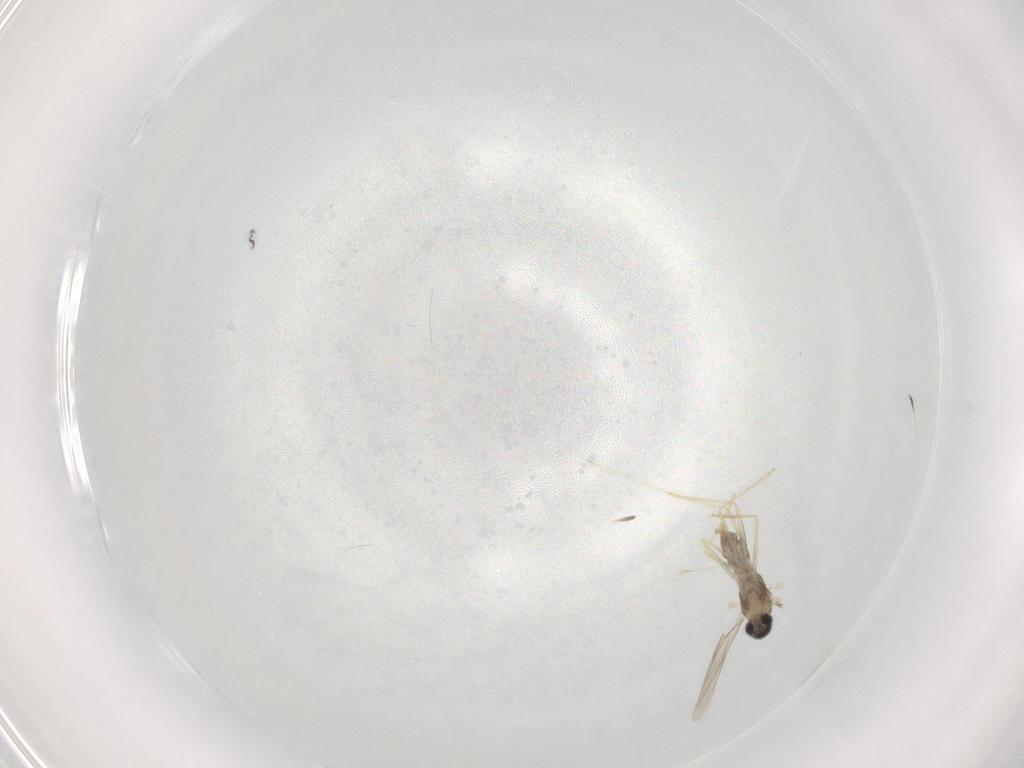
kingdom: Animalia
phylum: Arthropoda
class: Insecta
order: Diptera
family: Cecidomyiidae
